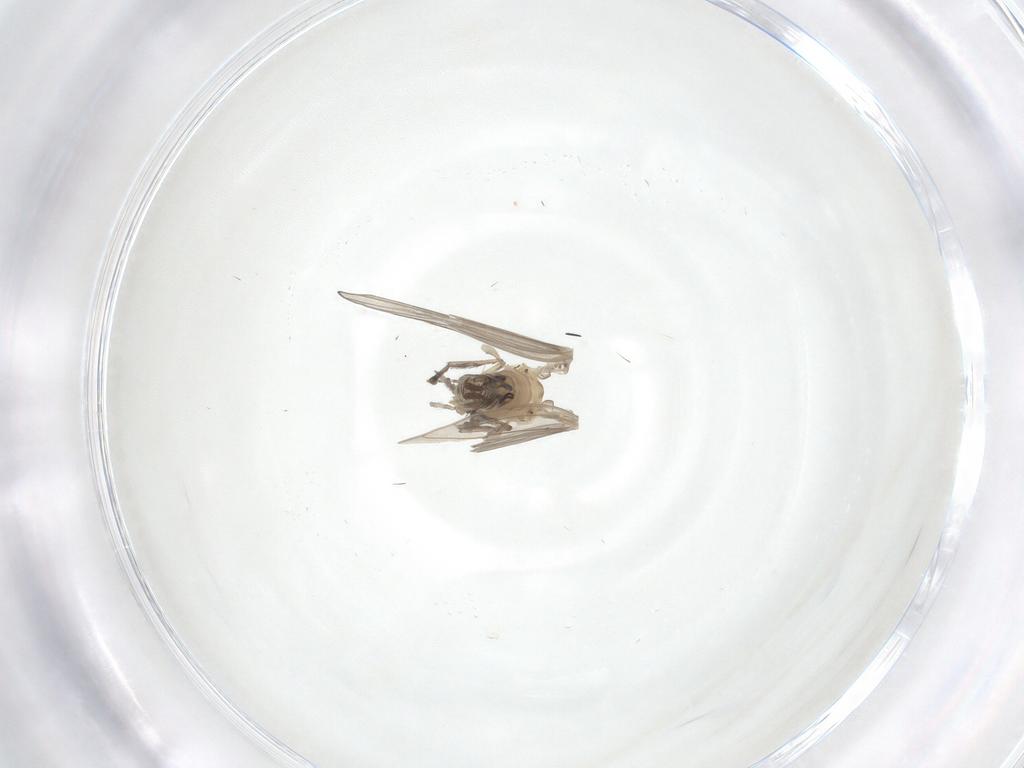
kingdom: Animalia
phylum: Arthropoda
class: Insecta
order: Diptera
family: Psychodidae
